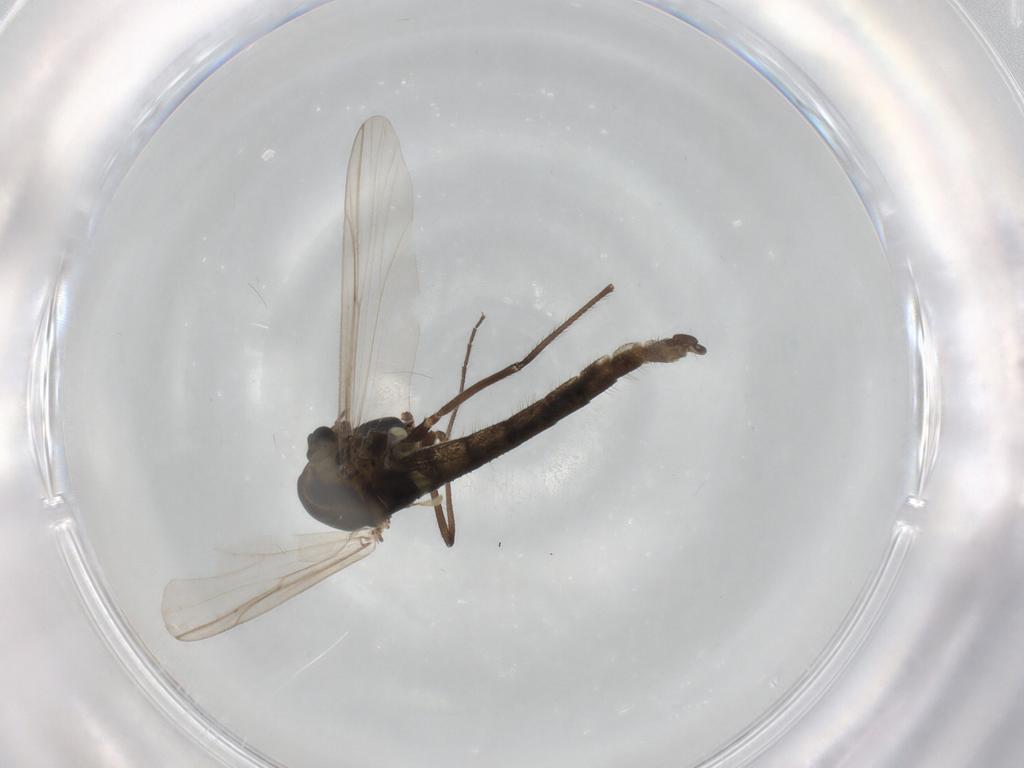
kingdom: Animalia
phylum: Arthropoda
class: Insecta
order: Diptera
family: Chironomidae
